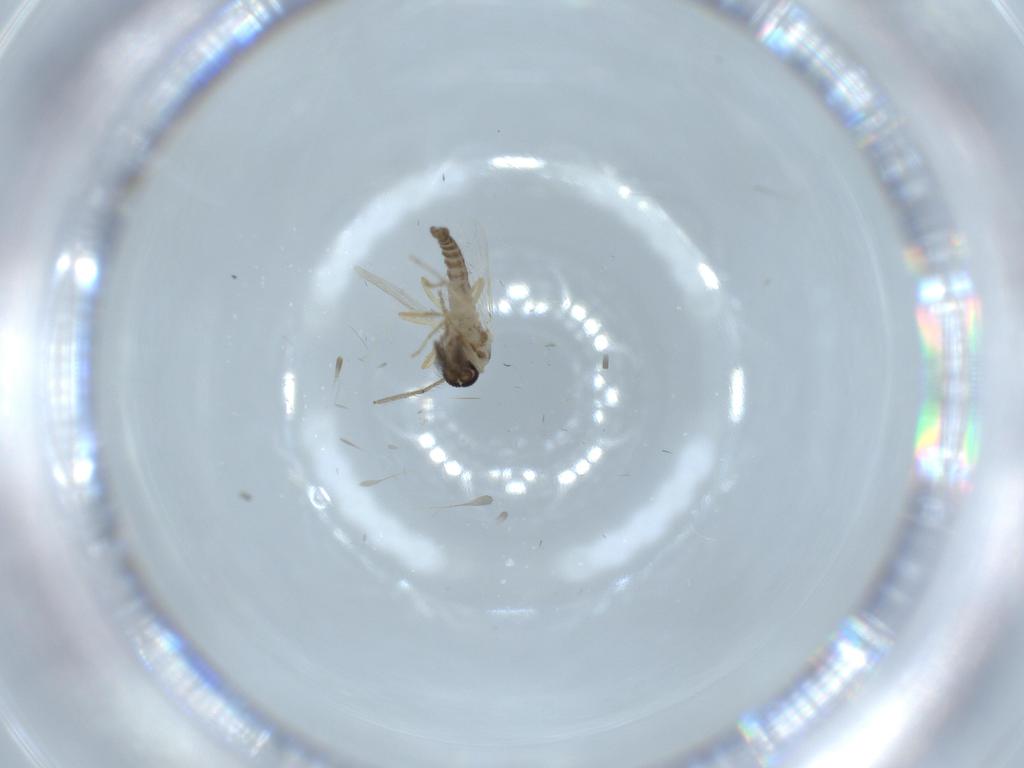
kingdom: Animalia
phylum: Arthropoda
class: Insecta
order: Diptera
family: Ceratopogonidae
